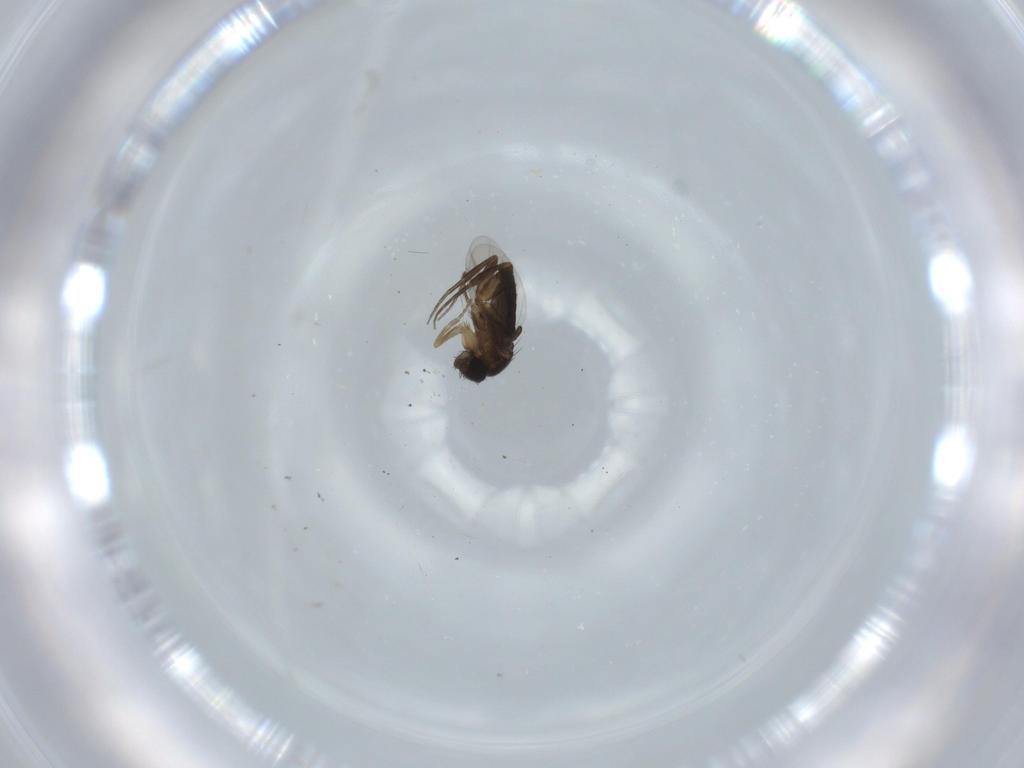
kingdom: Animalia
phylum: Arthropoda
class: Insecta
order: Diptera
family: Phoridae
